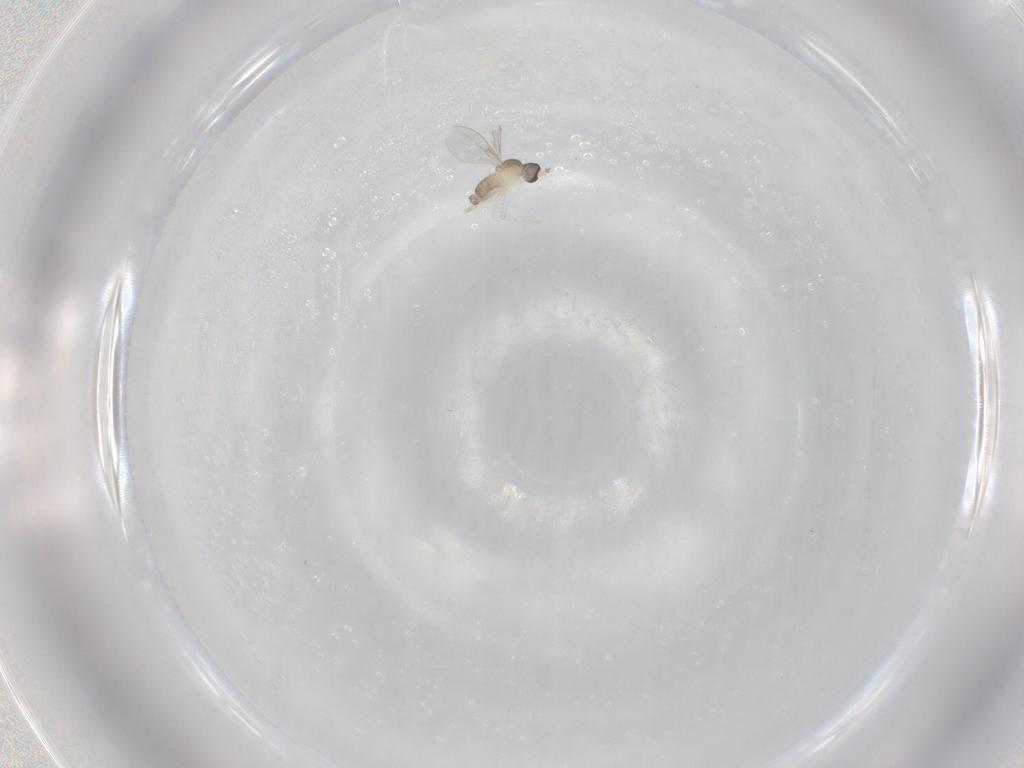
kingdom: Animalia
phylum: Arthropoda
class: Insecta
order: Diptera
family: Cecidomyiidae
